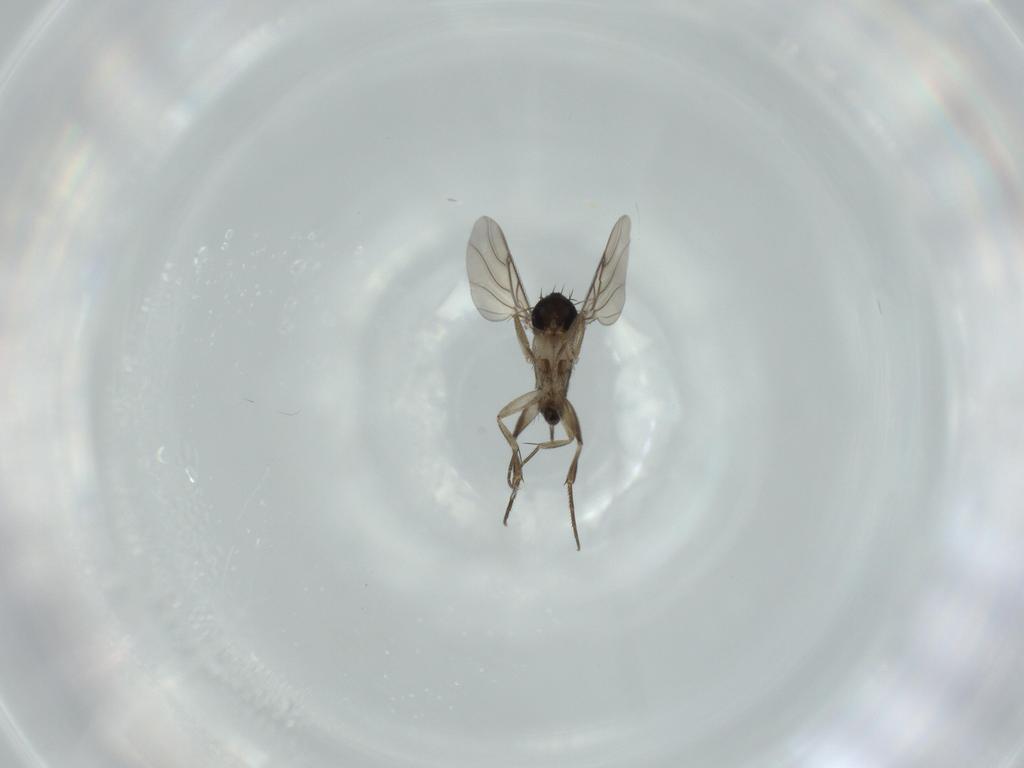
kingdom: Animalia
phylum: Arthropoda
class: Insecta
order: Diptera
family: Phoridae
